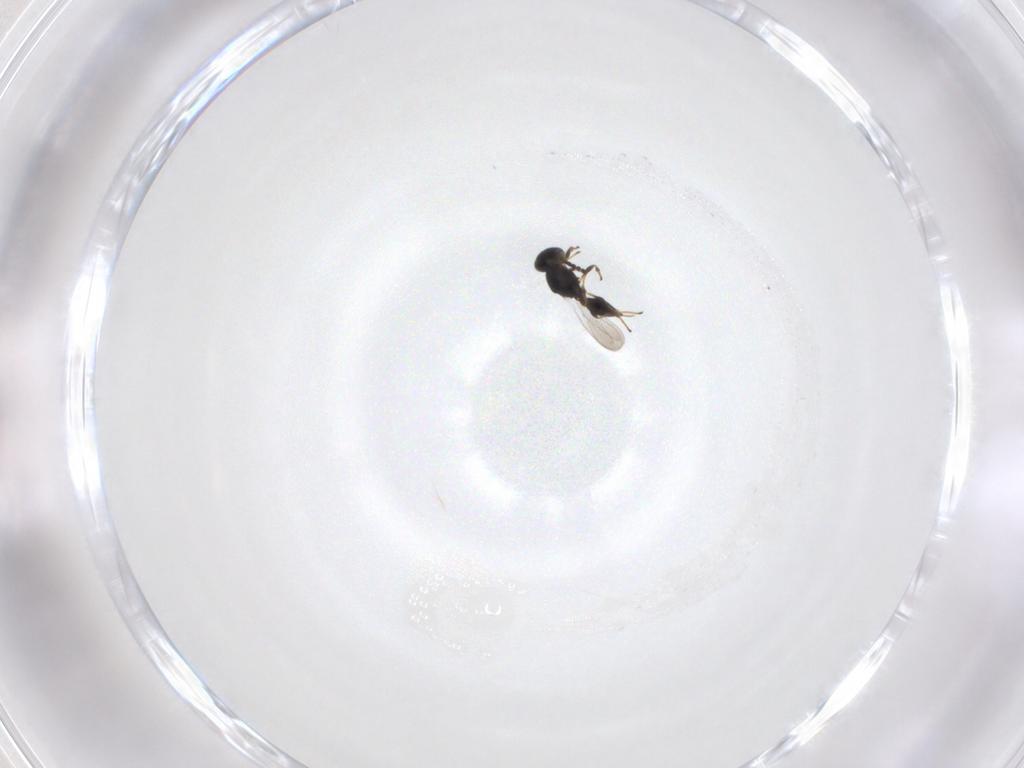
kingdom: Animalia
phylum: Arthropoda
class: Insecta
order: Hymenoptera
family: Platygastridae
